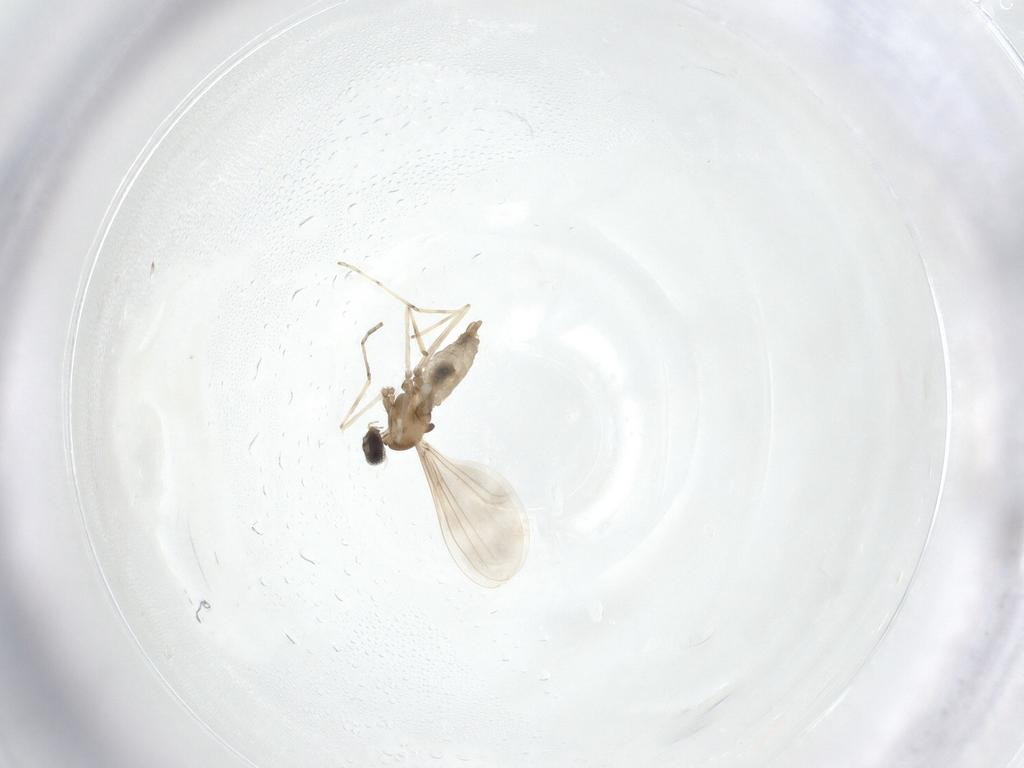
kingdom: Animalia
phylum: Arthropoda
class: Insecta
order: Diptera
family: Cecidomyiidae
